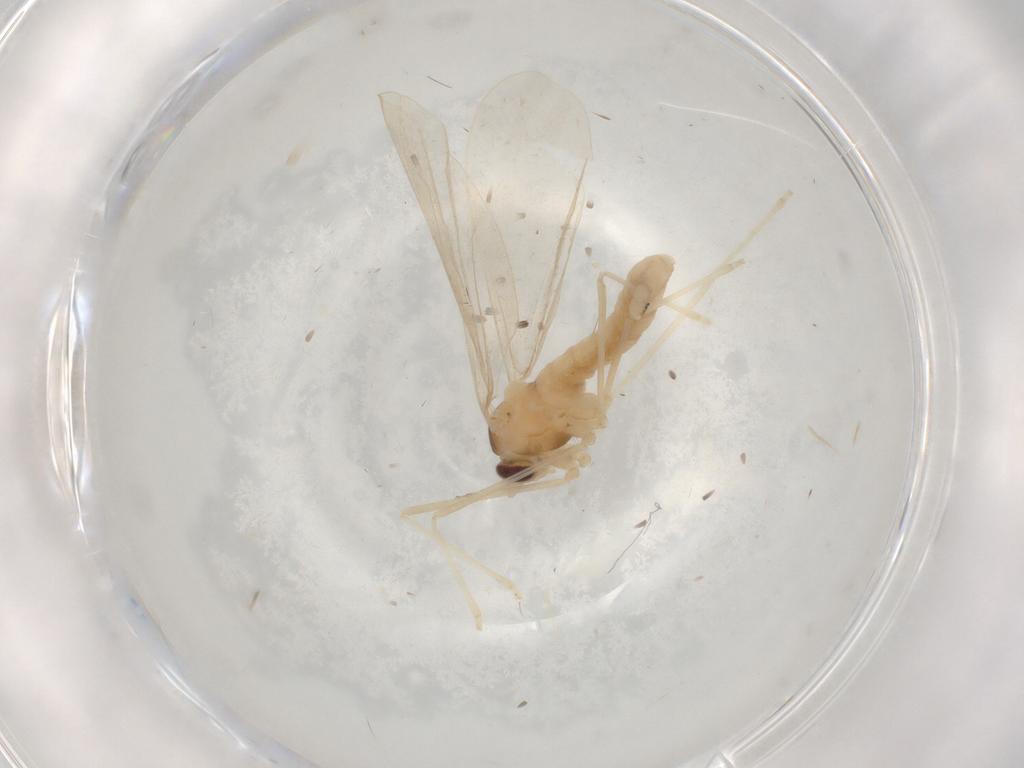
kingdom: Animalia
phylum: Arthropoda
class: Insecta
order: Diptera
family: Cecidomyiidae
